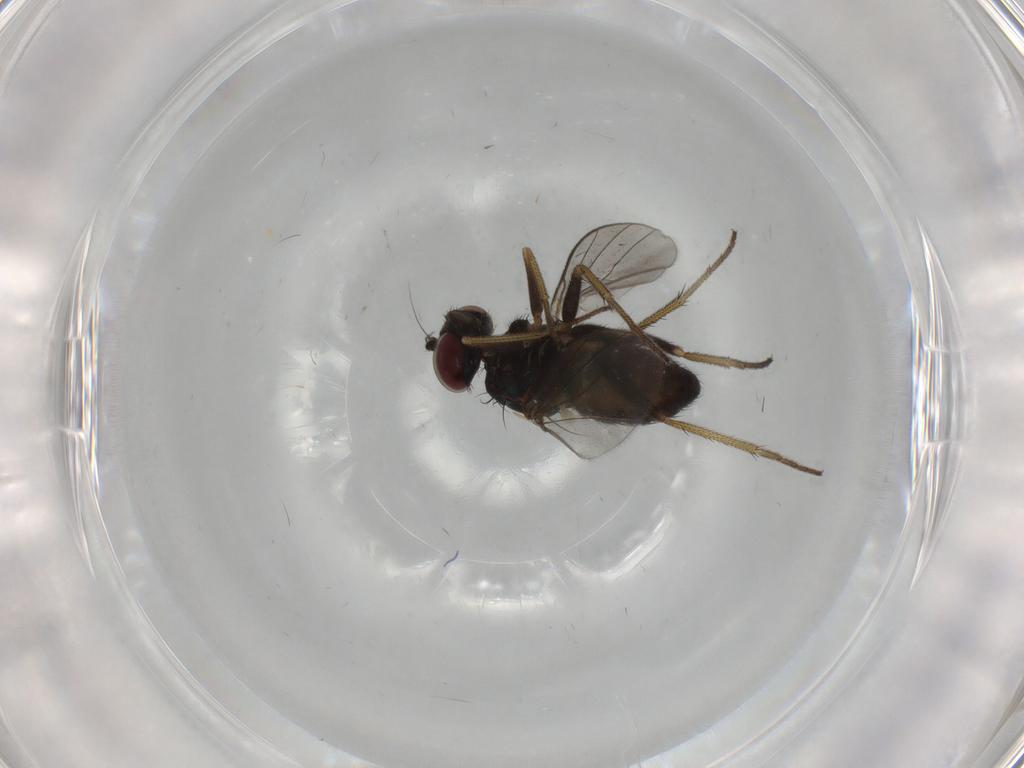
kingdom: Animalia
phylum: Arthropoda
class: Insecta
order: Diptera
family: Dolichopodidae
